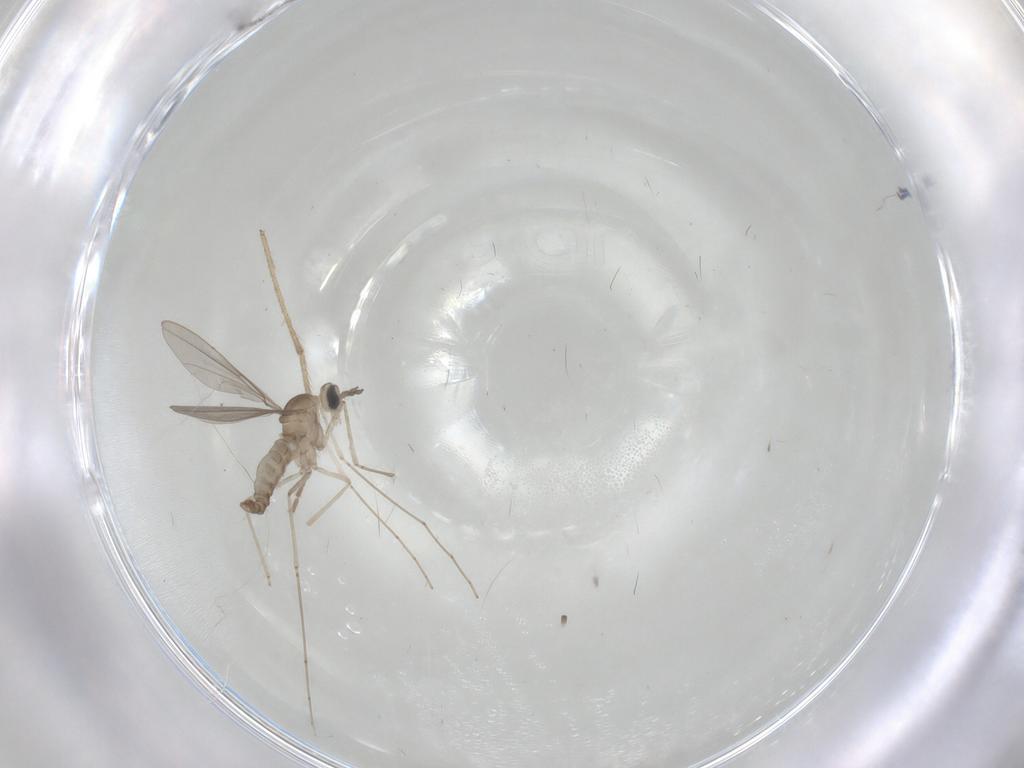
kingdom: Animalia
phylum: Arthropoda
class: Insecta
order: Diptera
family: Limoniidae
